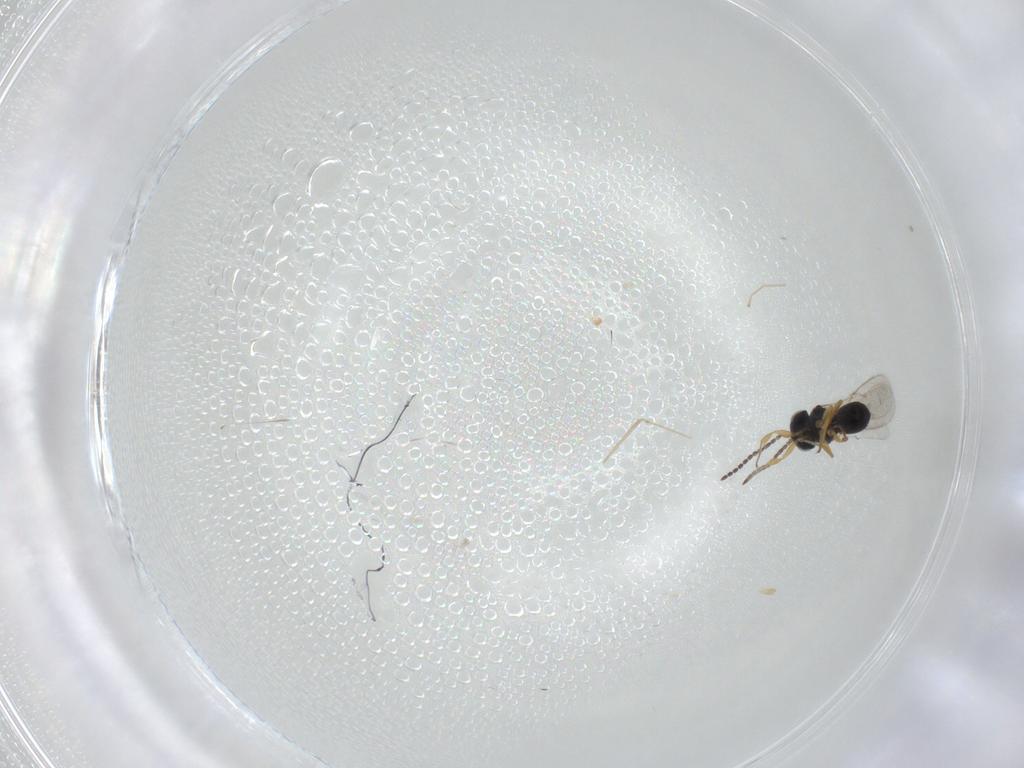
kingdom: Animalia
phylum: Arthropoda
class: Insecta
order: Hymenoptera
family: Scelionidae
